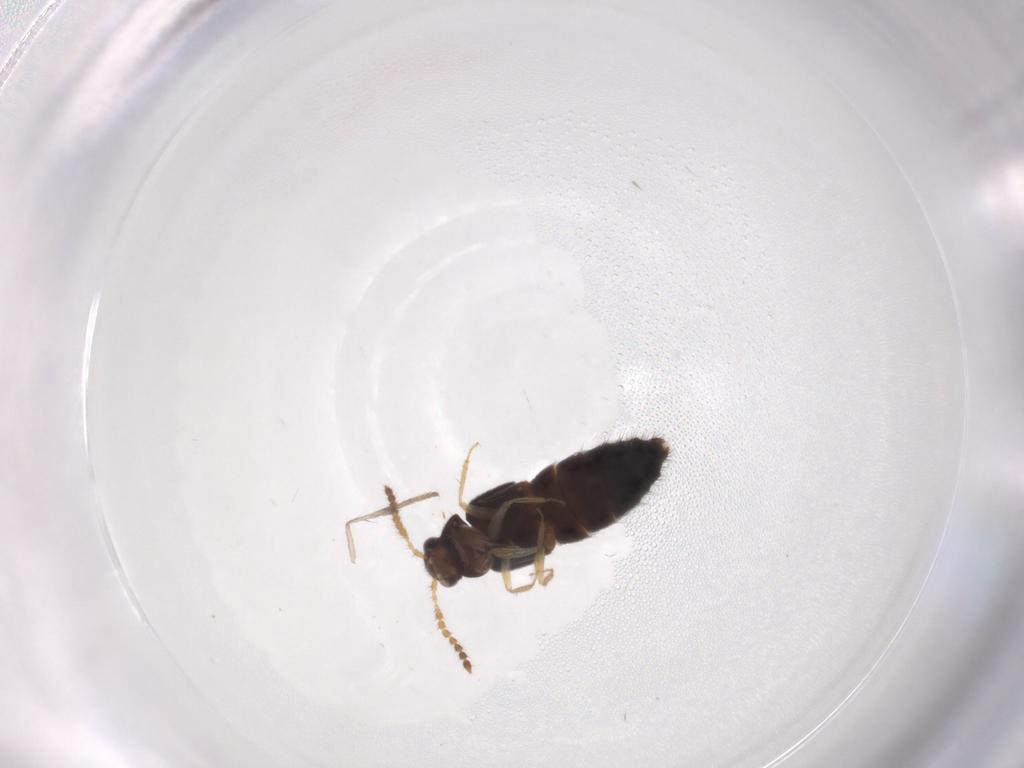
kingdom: Animalia
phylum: Arthropoda
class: Insecta
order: Coleoptera
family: Staphylinidae
